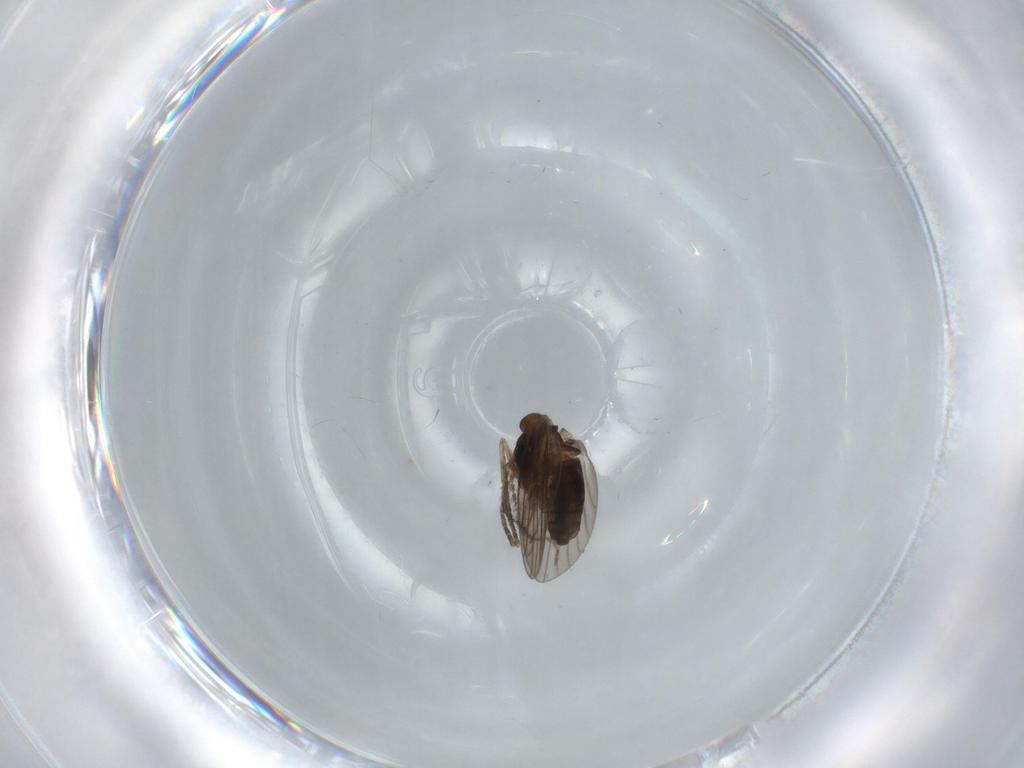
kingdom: Animalia
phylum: Arthropoda
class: Insecta
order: Diptera
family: Psychodidae
